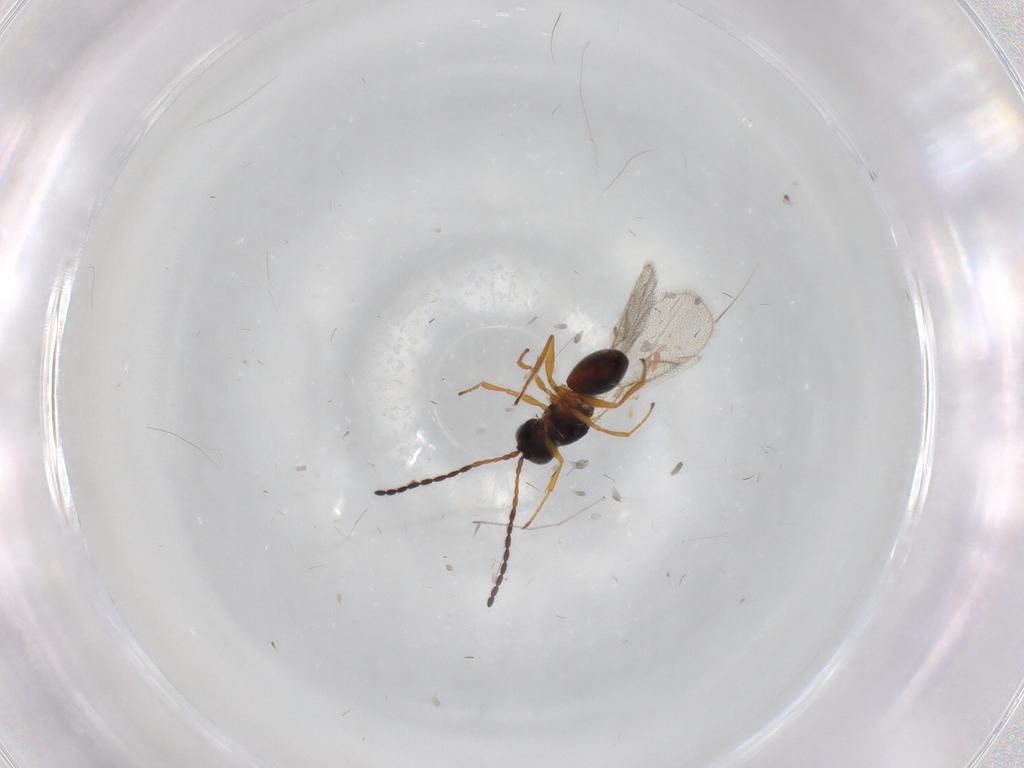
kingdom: Animalia
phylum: Arthropoda
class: Insecta
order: Hymenoptera
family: Figitidae
